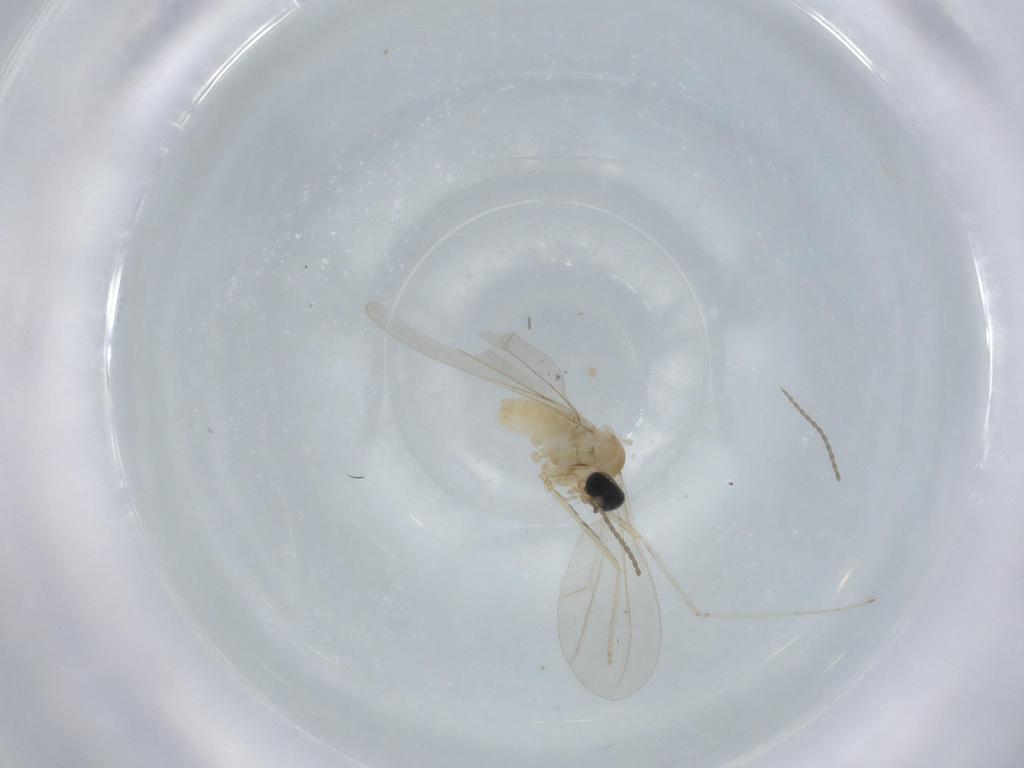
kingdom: Animalia
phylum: Arthropoda
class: Insecta
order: Diptera
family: Cecidomyiidae
